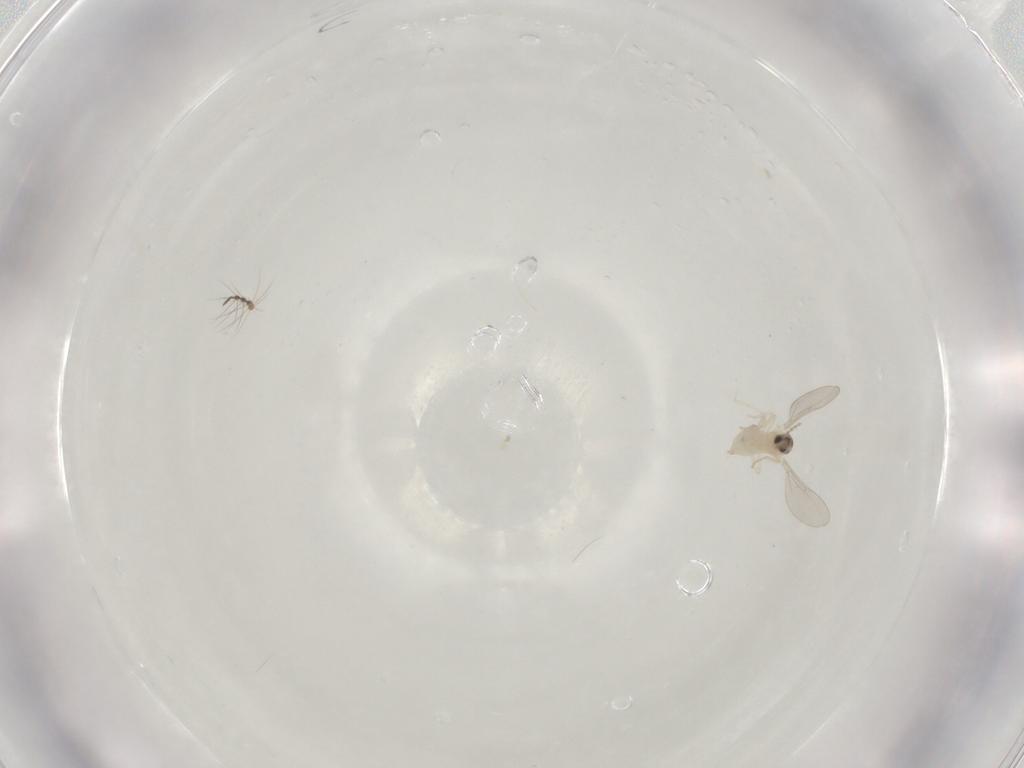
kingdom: Animalia
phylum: Arthropoda
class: Insecta
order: Diptera
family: Cecidomyiidae
